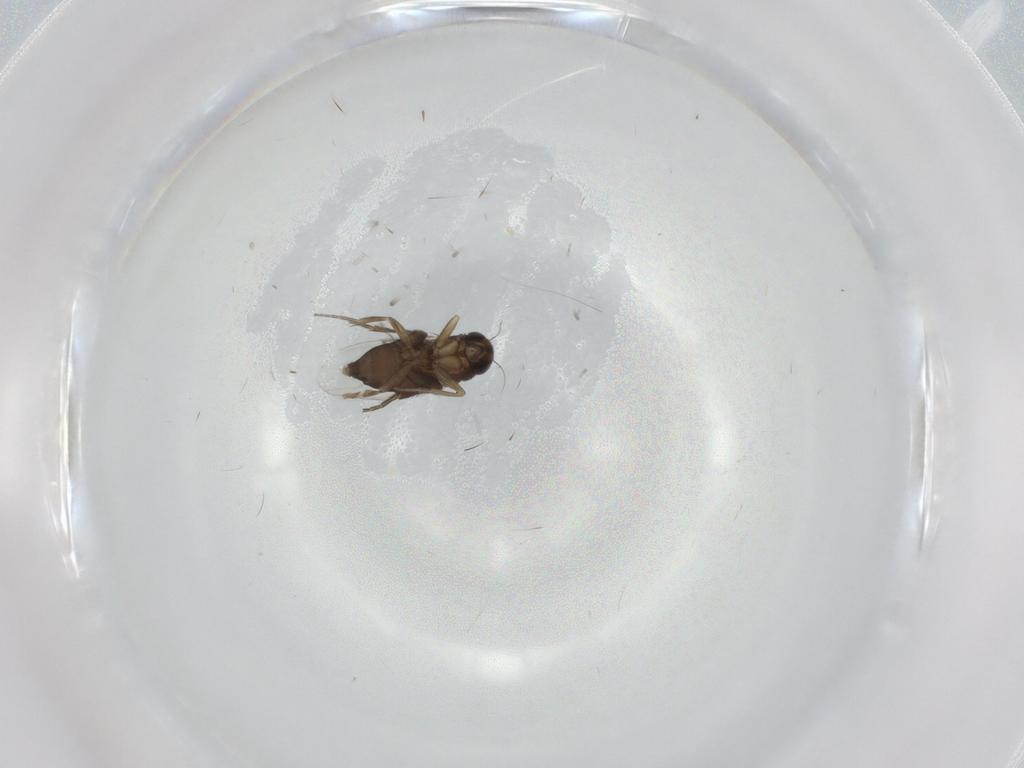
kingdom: Animalia
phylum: Arthropoda
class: Insecta
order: Diptera
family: Phoridae
